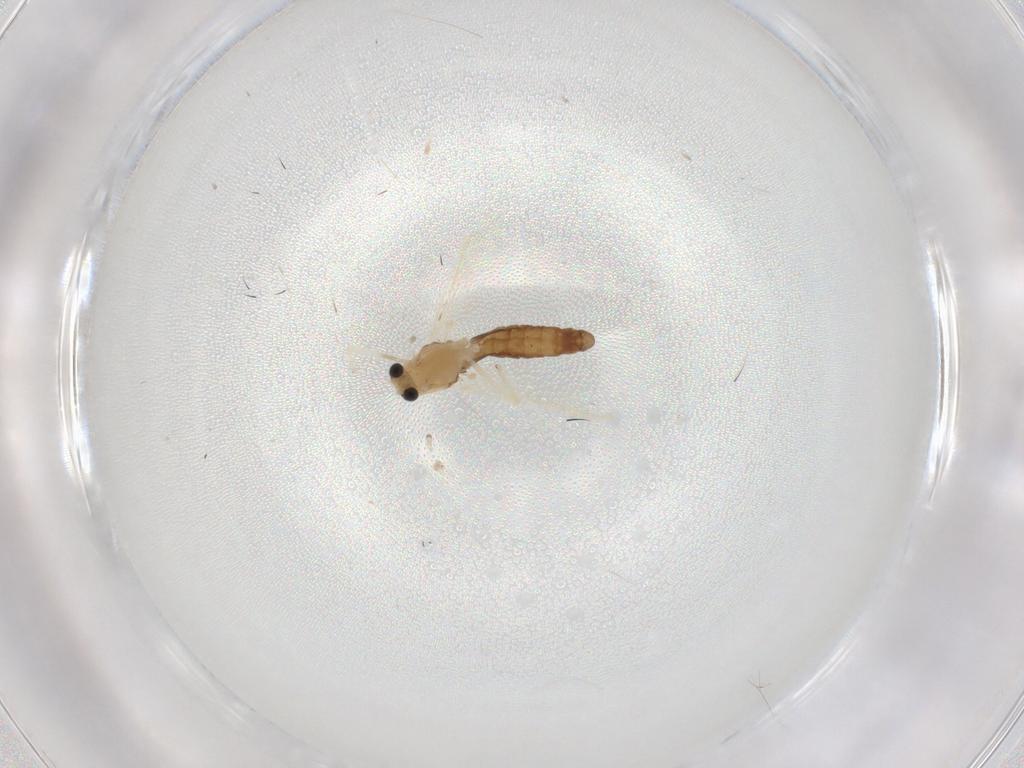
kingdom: Animalia
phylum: Arthropoda
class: Insecta
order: Diptera
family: Chironomidae
